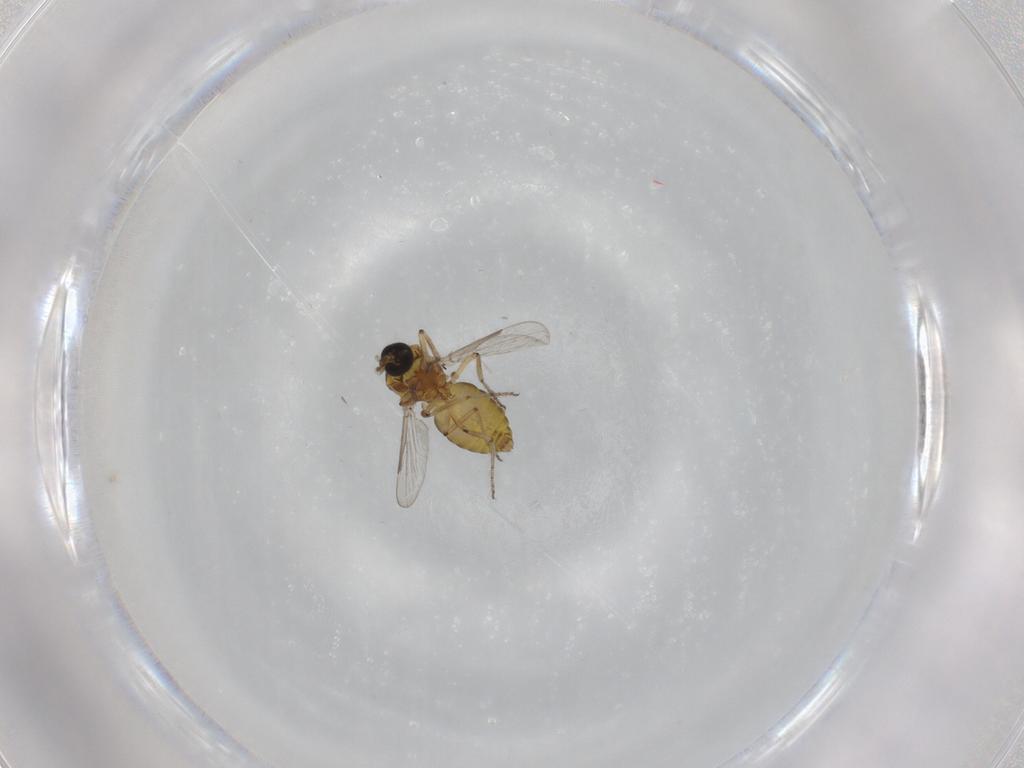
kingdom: Animalia
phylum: Arthropoda
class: Insecta
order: Diptera
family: Ceratopogonidae
